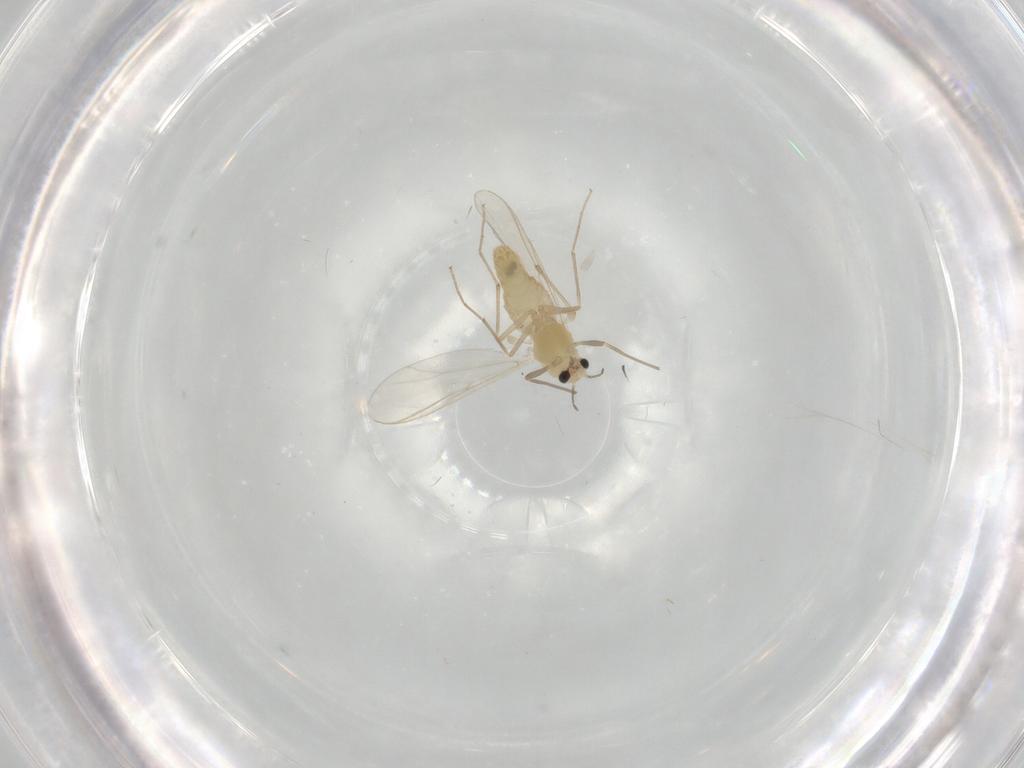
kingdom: Animalia
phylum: Arthropoda
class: Insecta
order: Diptera
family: Chironomidae
